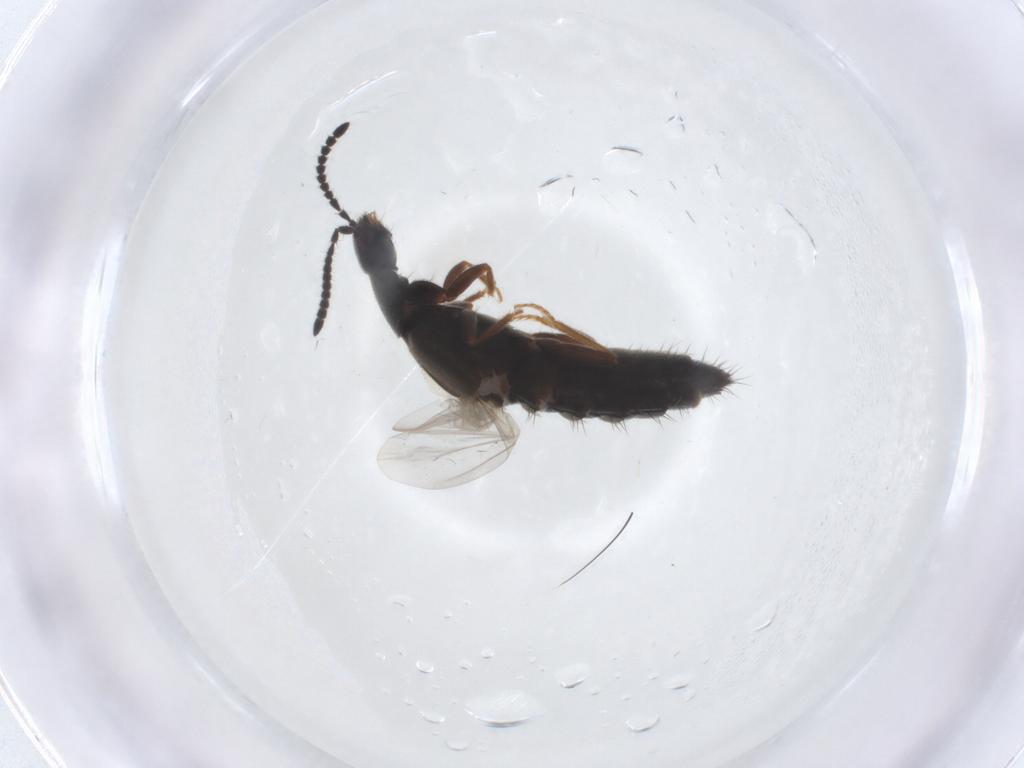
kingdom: Animalia
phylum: Arthropoda
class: Insecta
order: Coleoptera
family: Staphylinidae
